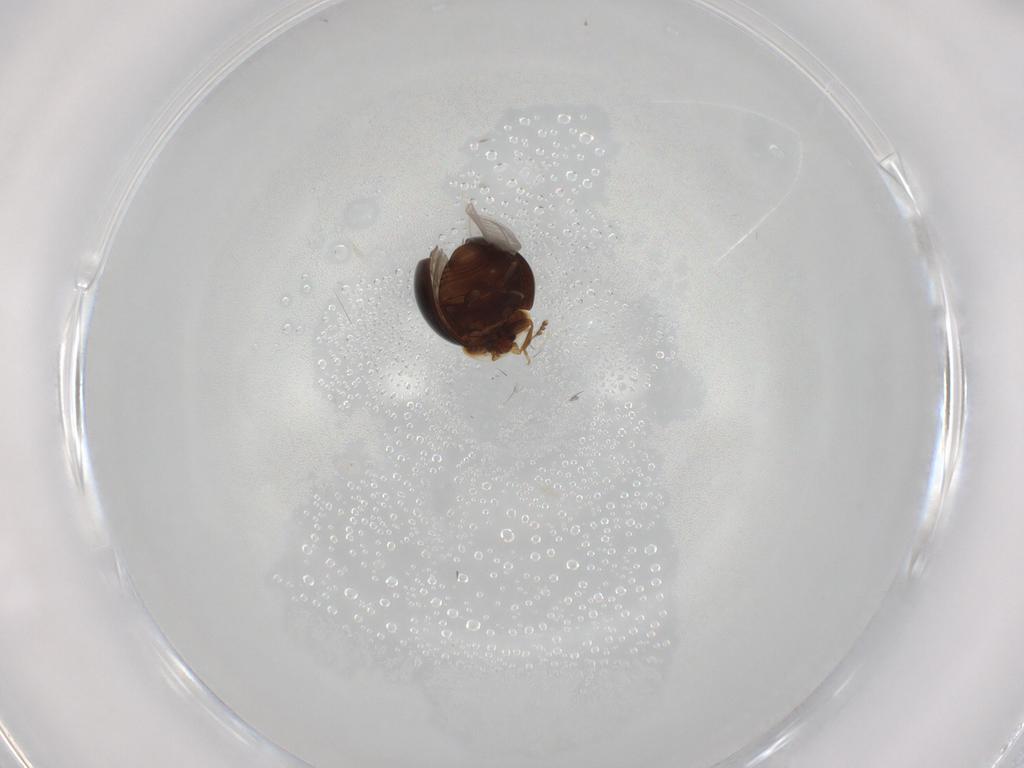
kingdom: Animalia
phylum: Arthropoda
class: Insecta
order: Coleoptera
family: Corylophidae
